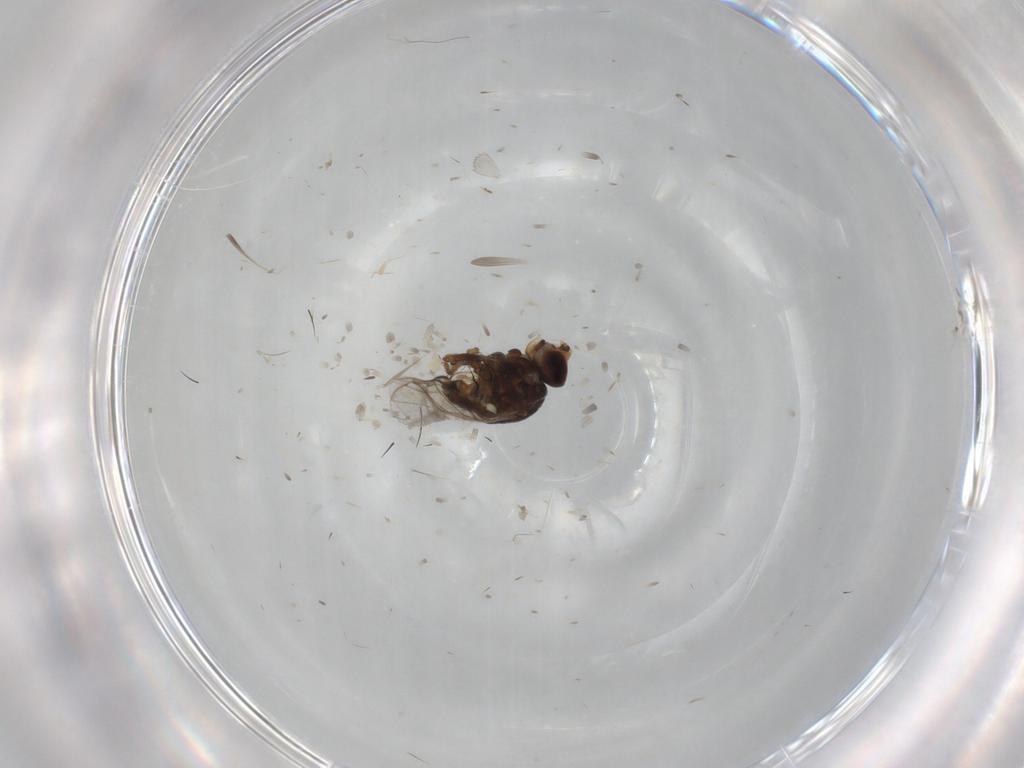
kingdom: Animalia
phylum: Arthropoda
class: Insecta
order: Diptera
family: Chloropidae
